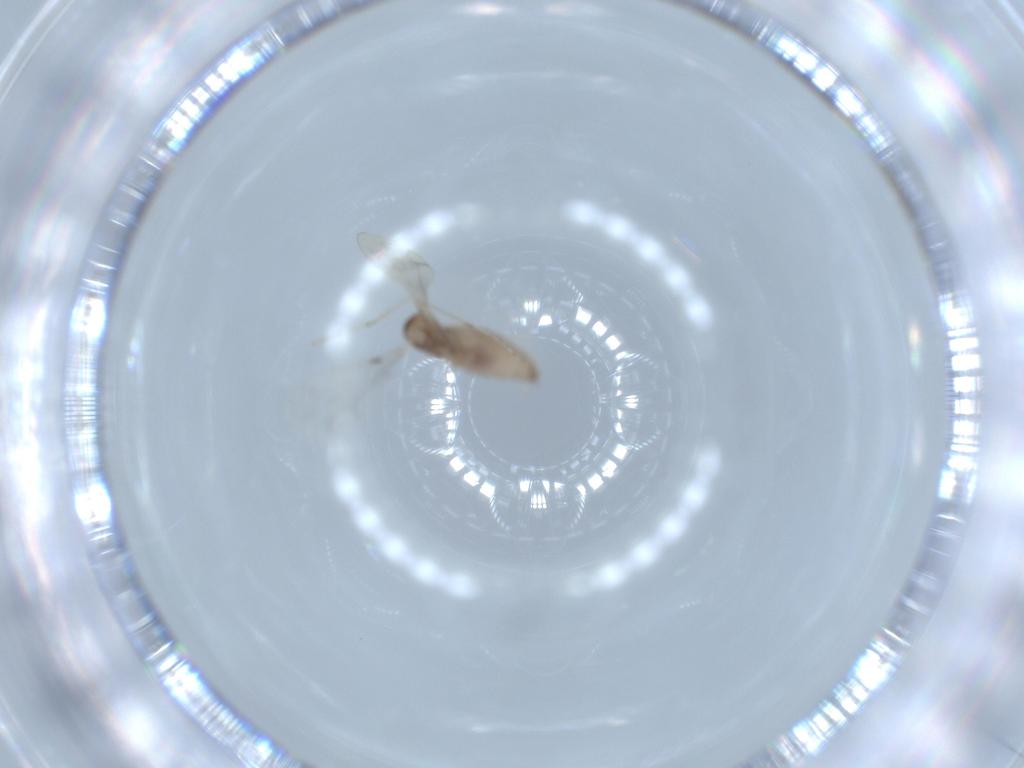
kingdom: Animalia
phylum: Arthropoda
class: Insecta
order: Diptera
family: Cecidomyiidae
